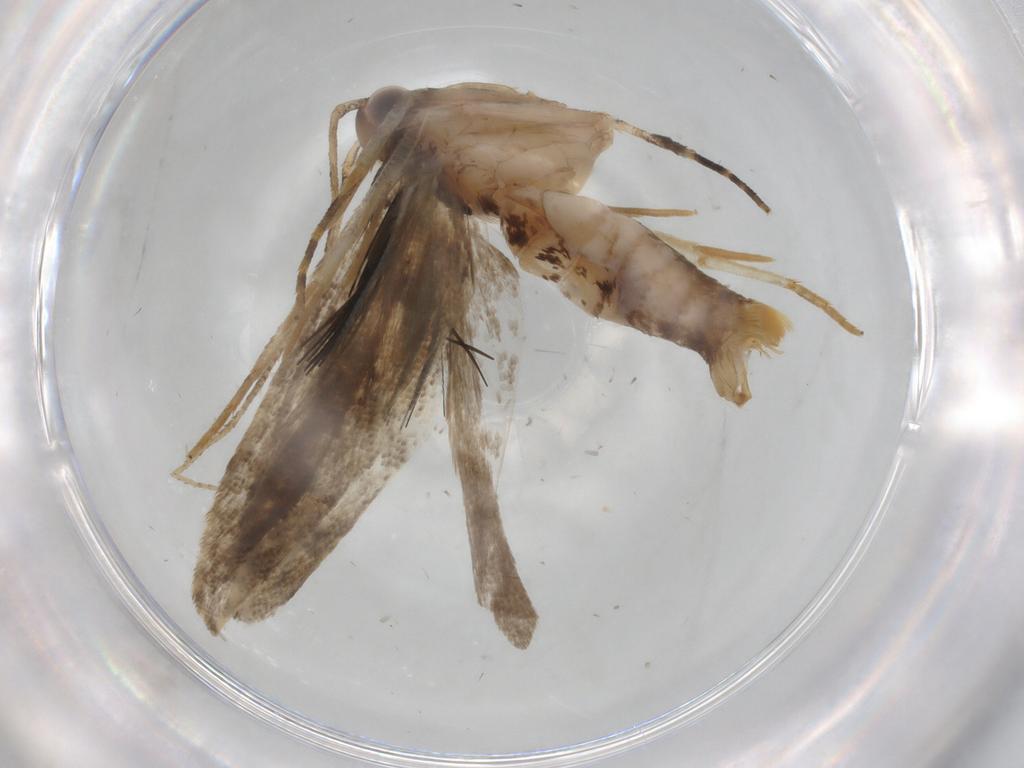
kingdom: Animalia
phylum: Arthropoda
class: Insecta
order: Lepidoptera
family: Gelechiidae
